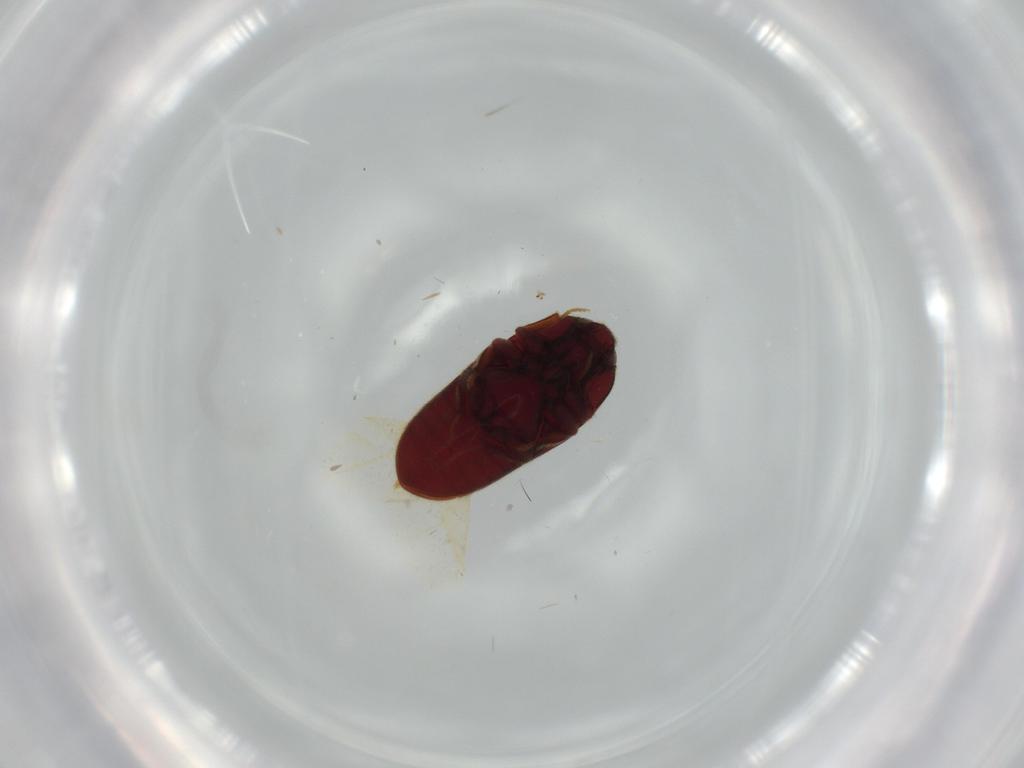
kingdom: Animalia
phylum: Arthropoda
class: Insecta
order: Coleoptera
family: Throscidae
